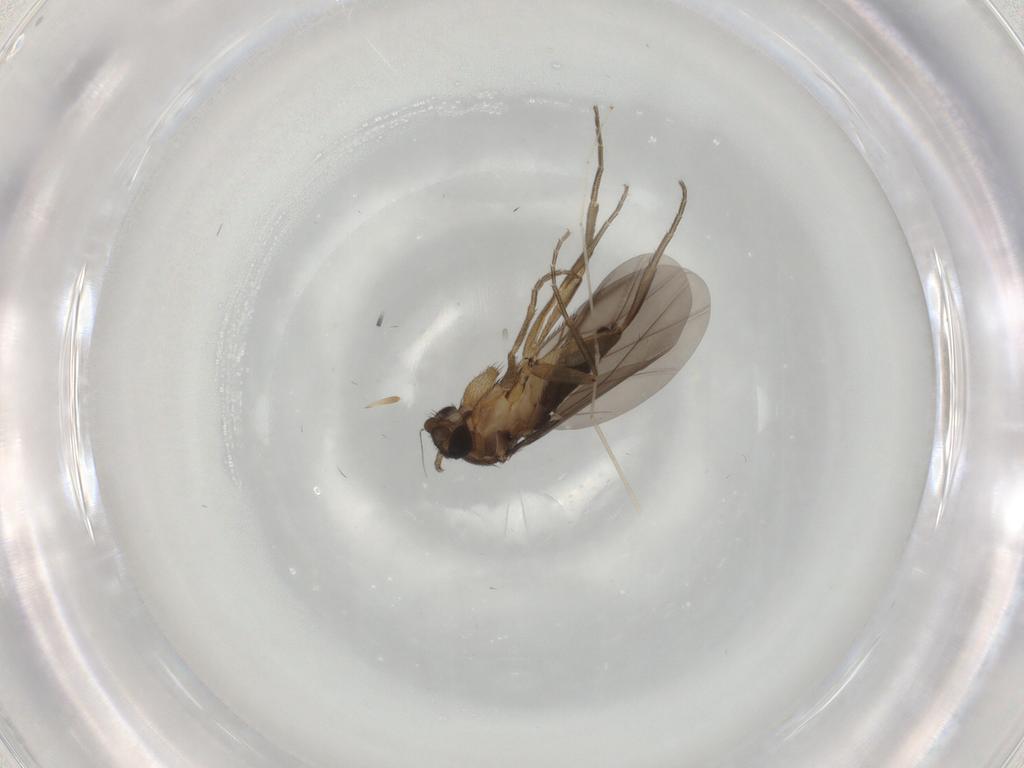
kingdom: Animalia
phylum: Arthropoda
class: Insecta
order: Diptera
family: Phoridae
